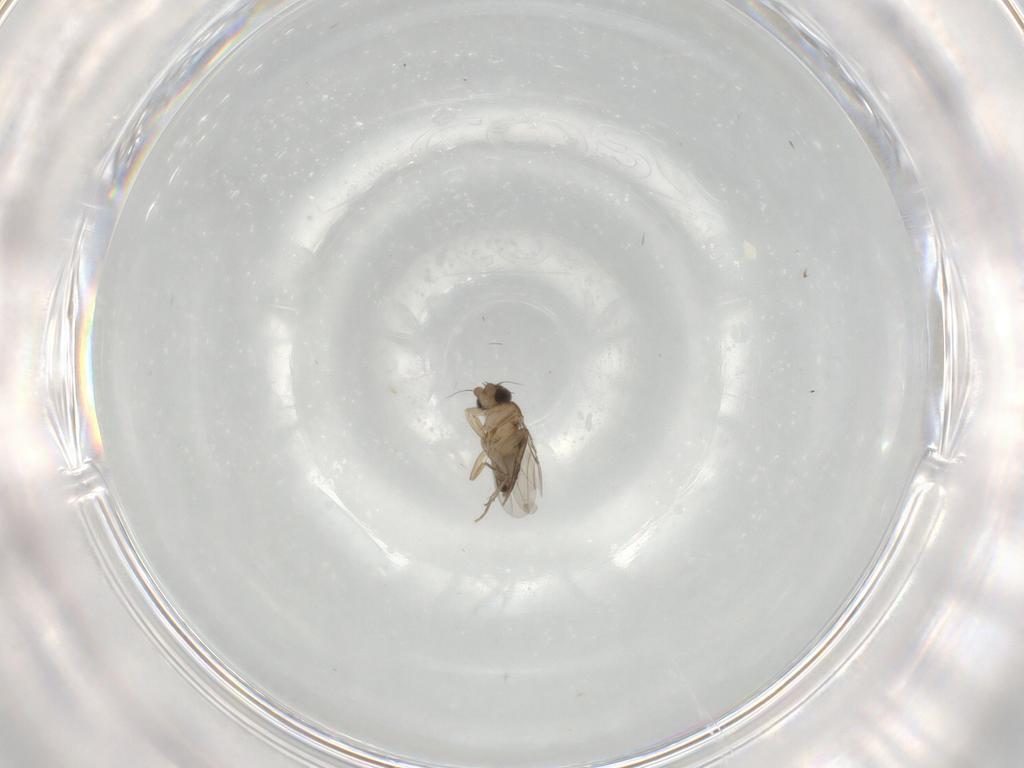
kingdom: Animalia
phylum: Arthropoda
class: Insecta
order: Diptera
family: Phoridae
